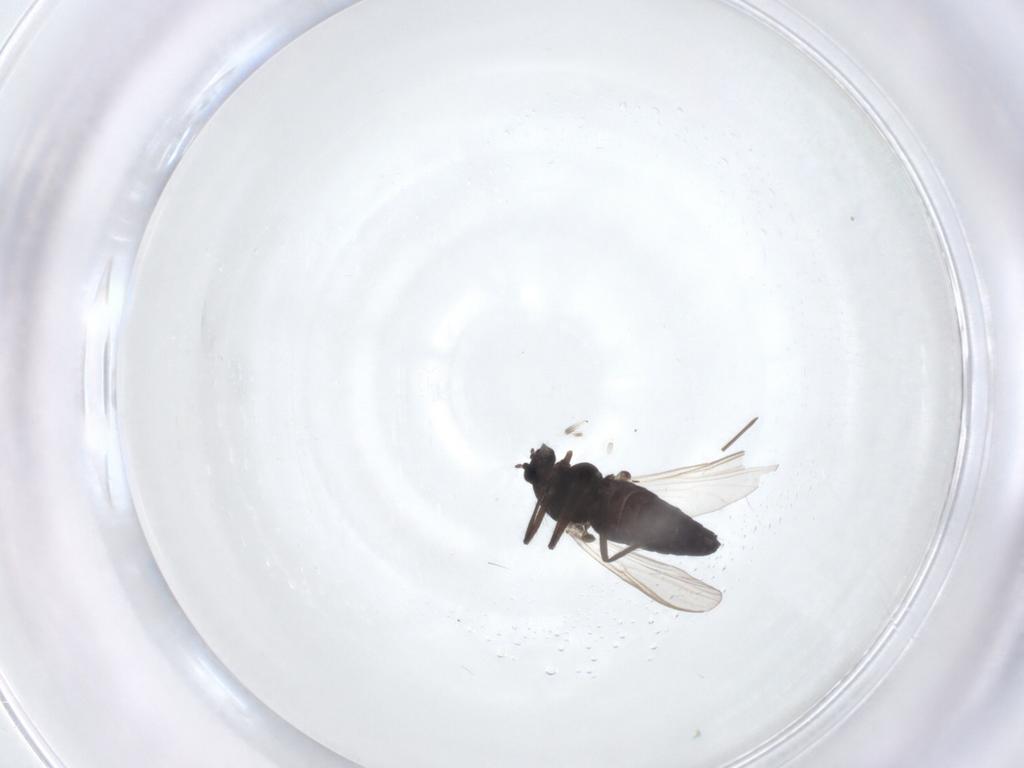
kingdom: Animalia
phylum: Arthropoda
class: Insecta
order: Diptera
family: Chironomidae
